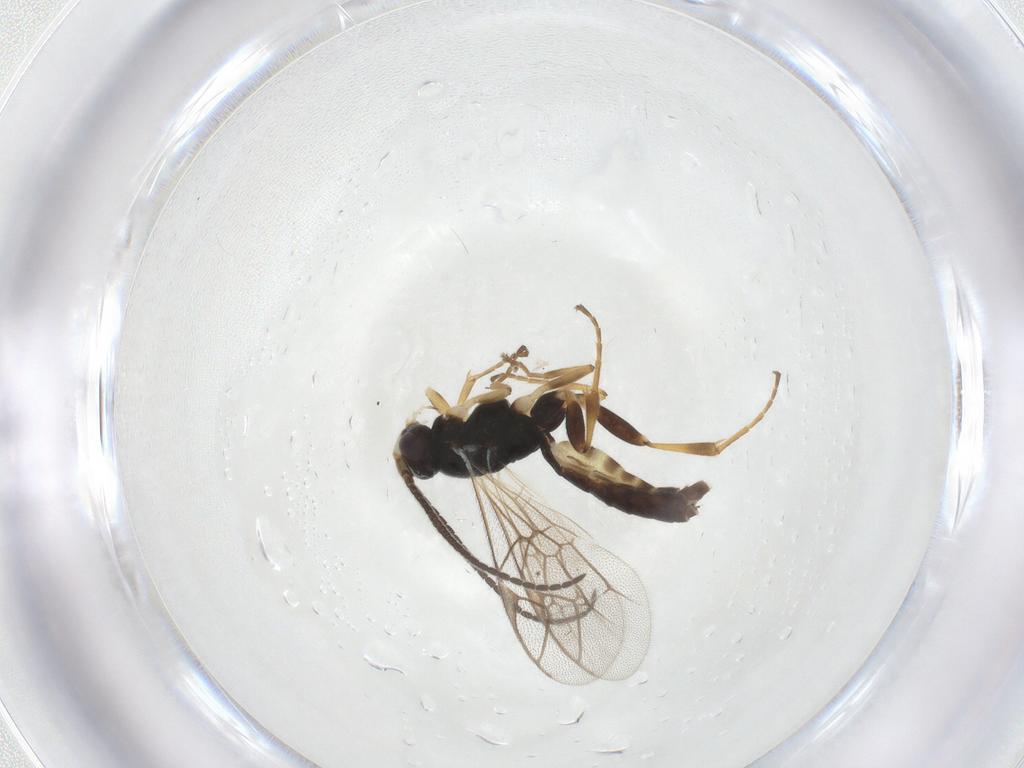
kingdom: Animalia
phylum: Arthropoda
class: Insecta
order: Hymenoptera
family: Ichneumonidae
